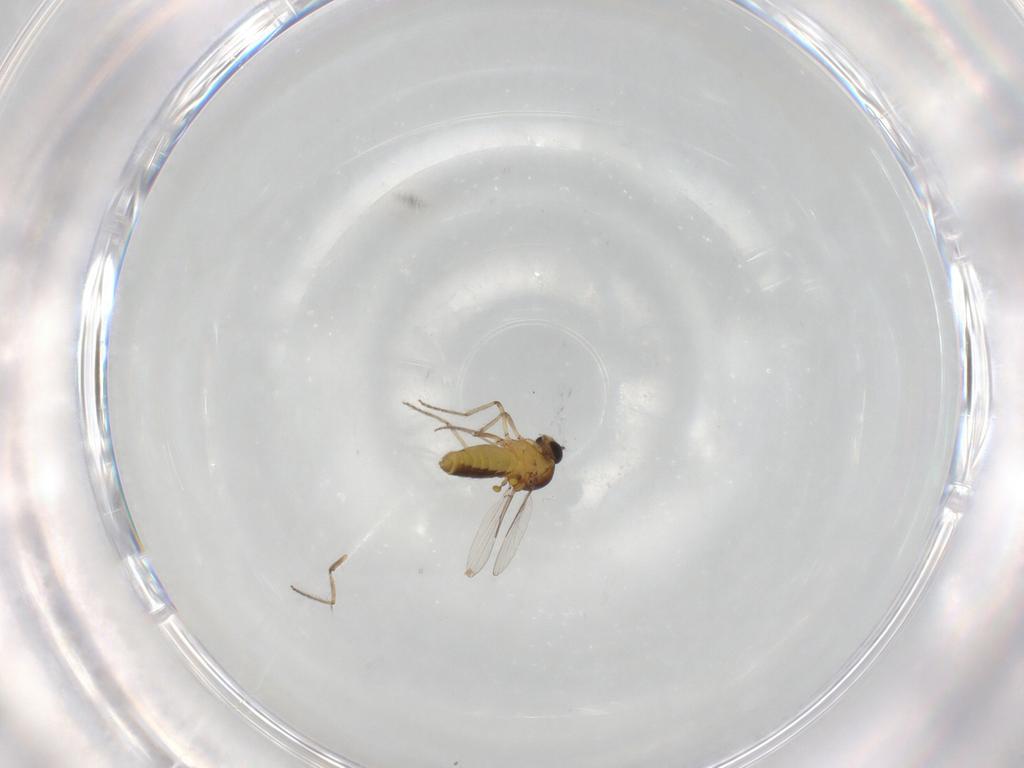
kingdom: Animalia
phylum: Arthropoda
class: Insecta
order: Diptera
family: Ceratopogonidae
